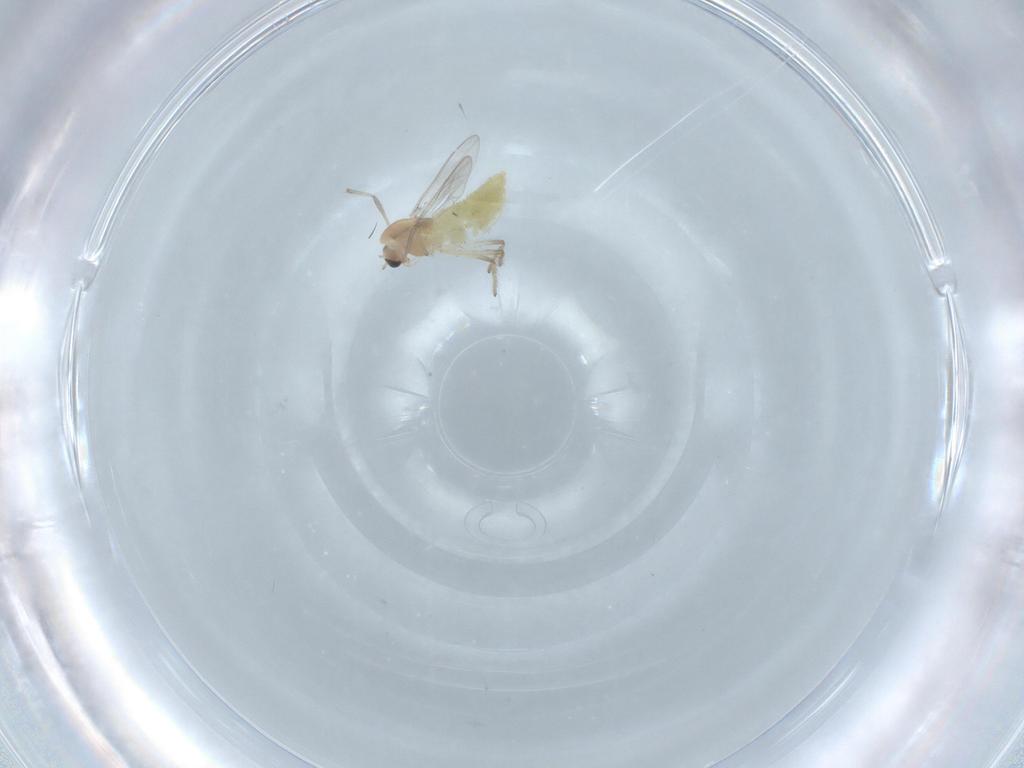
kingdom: Animalia
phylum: Arthropoda
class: Insecta
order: Diptera
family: Chironomidae
